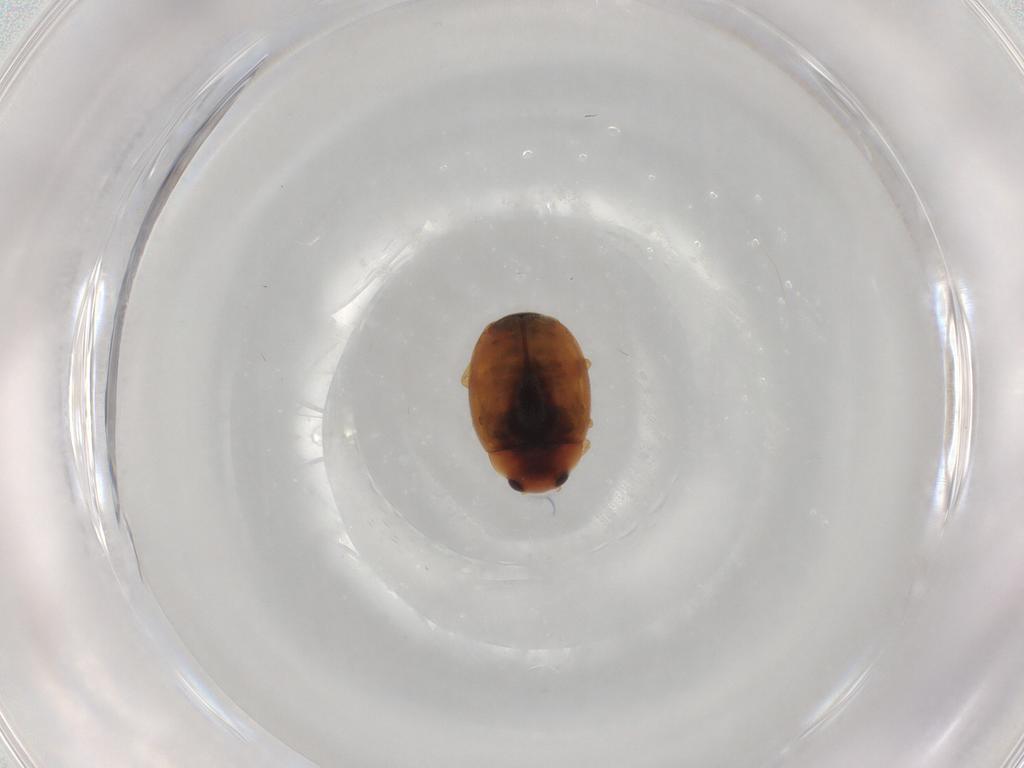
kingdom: Animalia
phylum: Arthropoda
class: Insecta
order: Coleoptera
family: Coccinellidae
